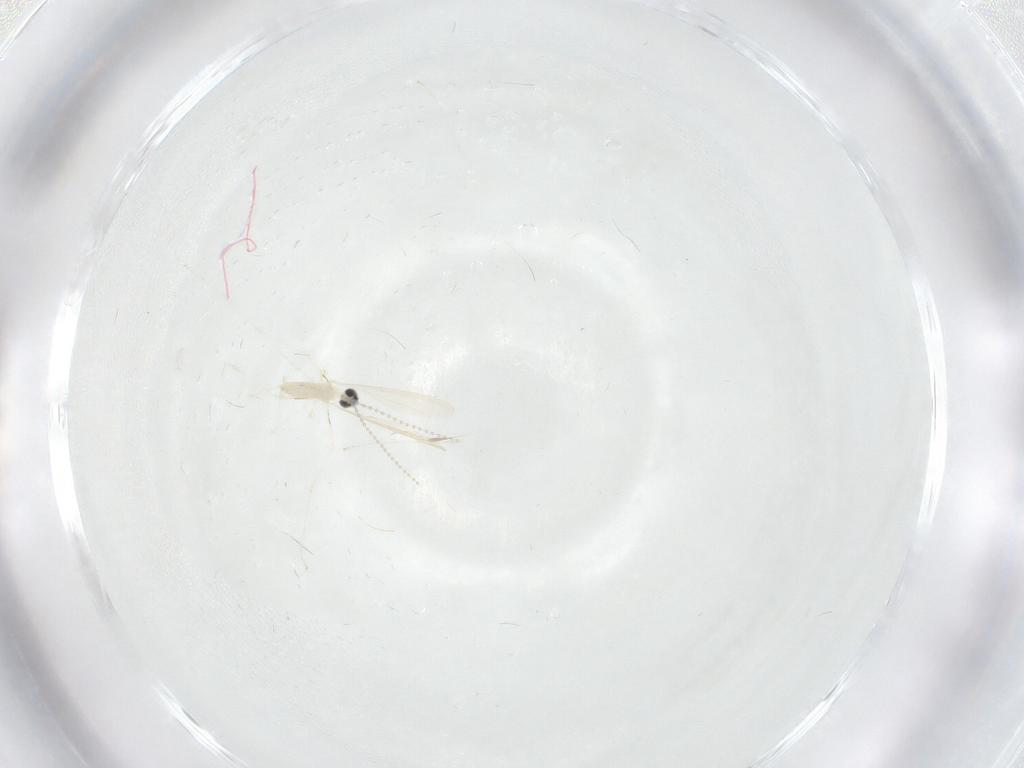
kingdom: Animalia
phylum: Arthropoda
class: Insecta
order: Diptera
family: Cecidomyiidae
